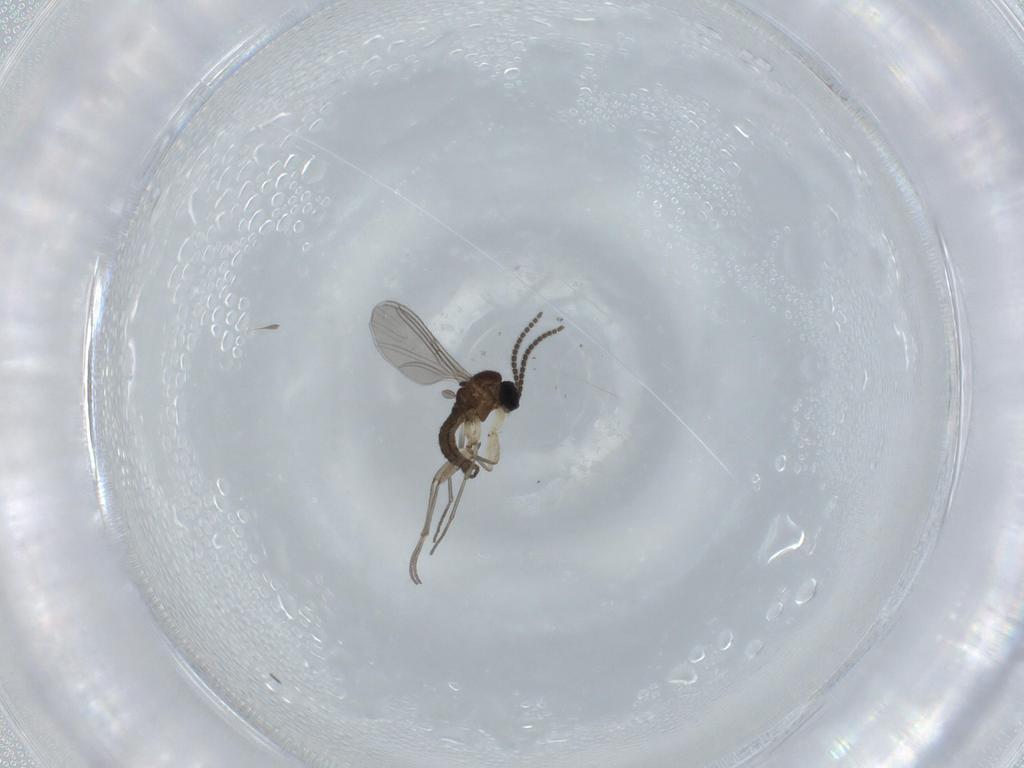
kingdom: Animalia
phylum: Arthropoda
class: Insecta
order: Diptera
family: Sciaridae
